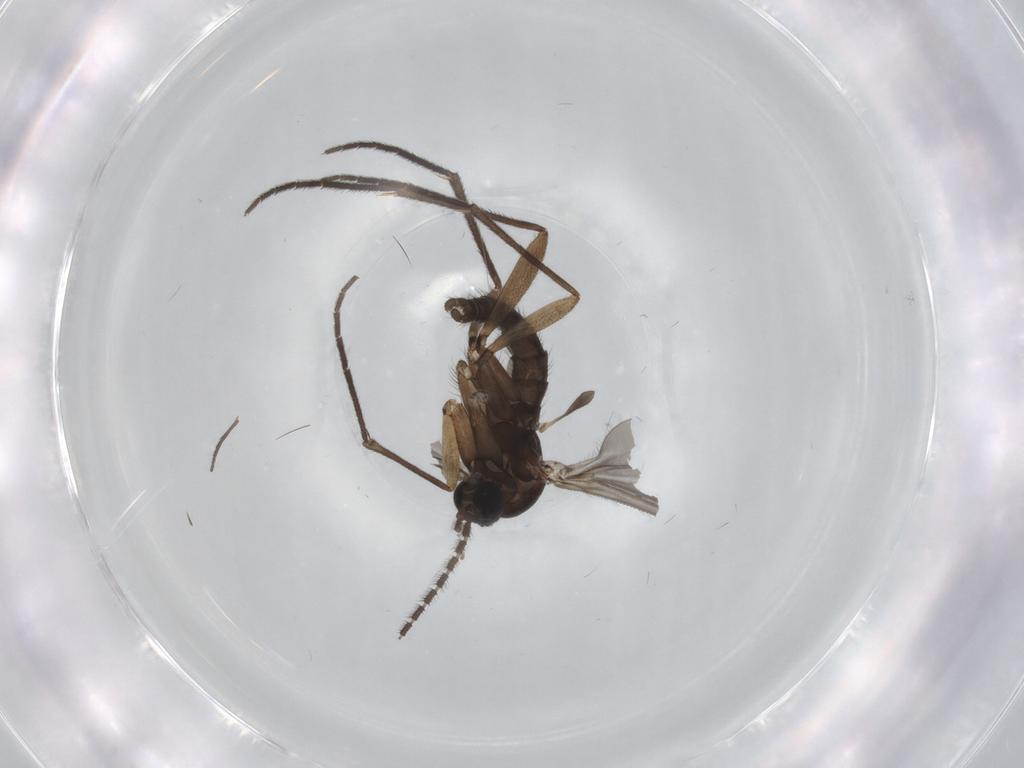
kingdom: Animalia
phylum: Arthropoda
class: Insecta
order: Diptera
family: Sciaridae
